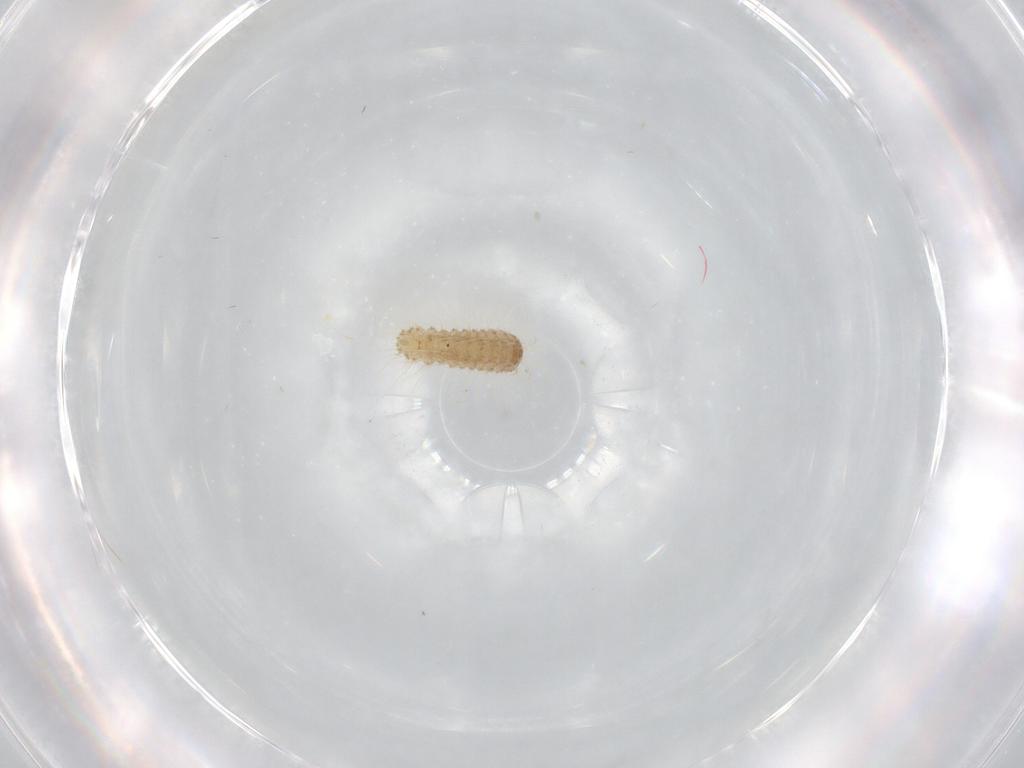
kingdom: Animalia
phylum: Arthropoda
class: Insecta
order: Lepidoptera
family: Lycaenidae
